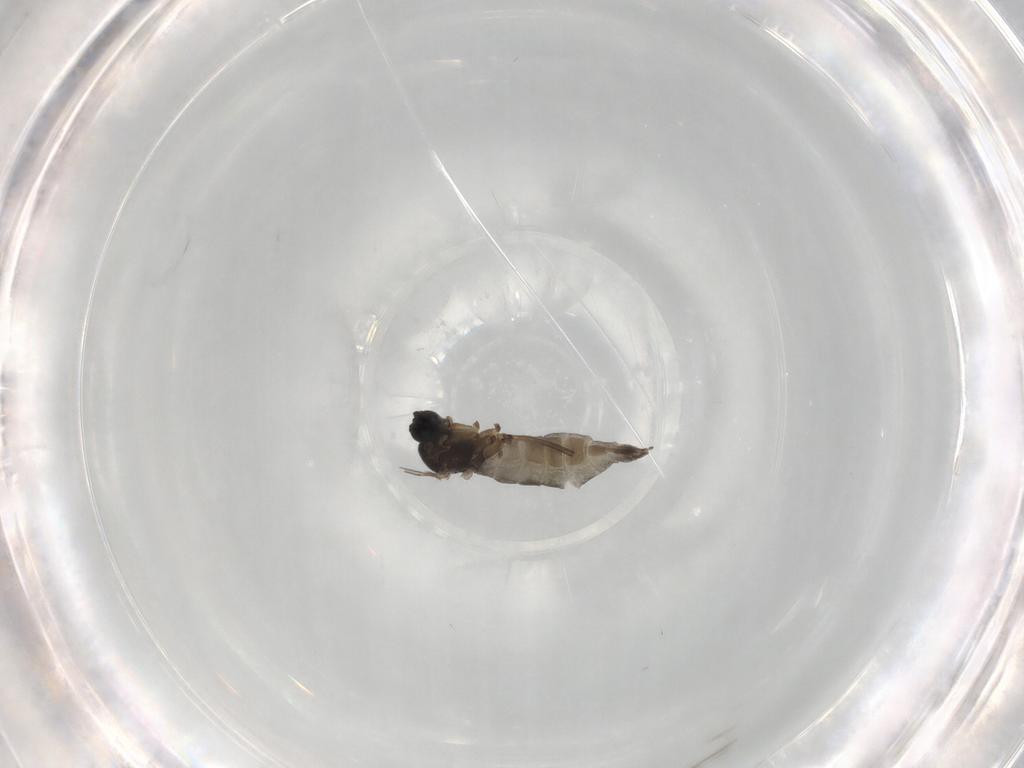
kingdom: Animalia
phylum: Arthropoda
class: Insecta
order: Diptera
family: Sciaridae
